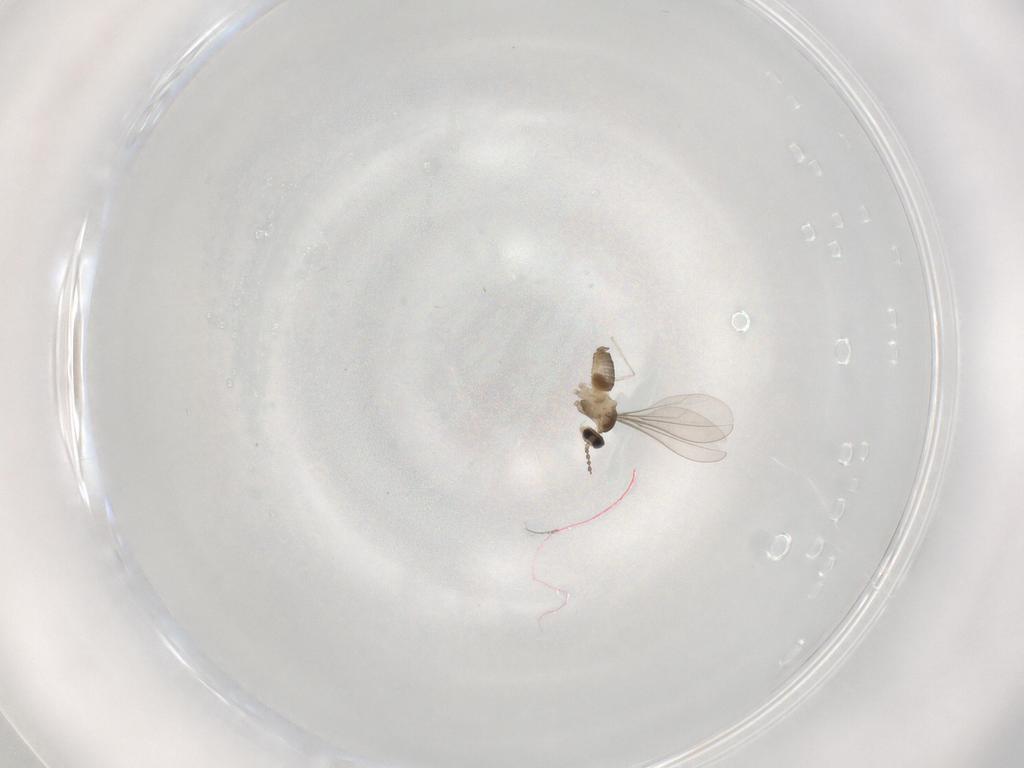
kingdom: Animalia
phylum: Arthropoda
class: Insecta
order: Diptera
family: Cecidomyiidae
